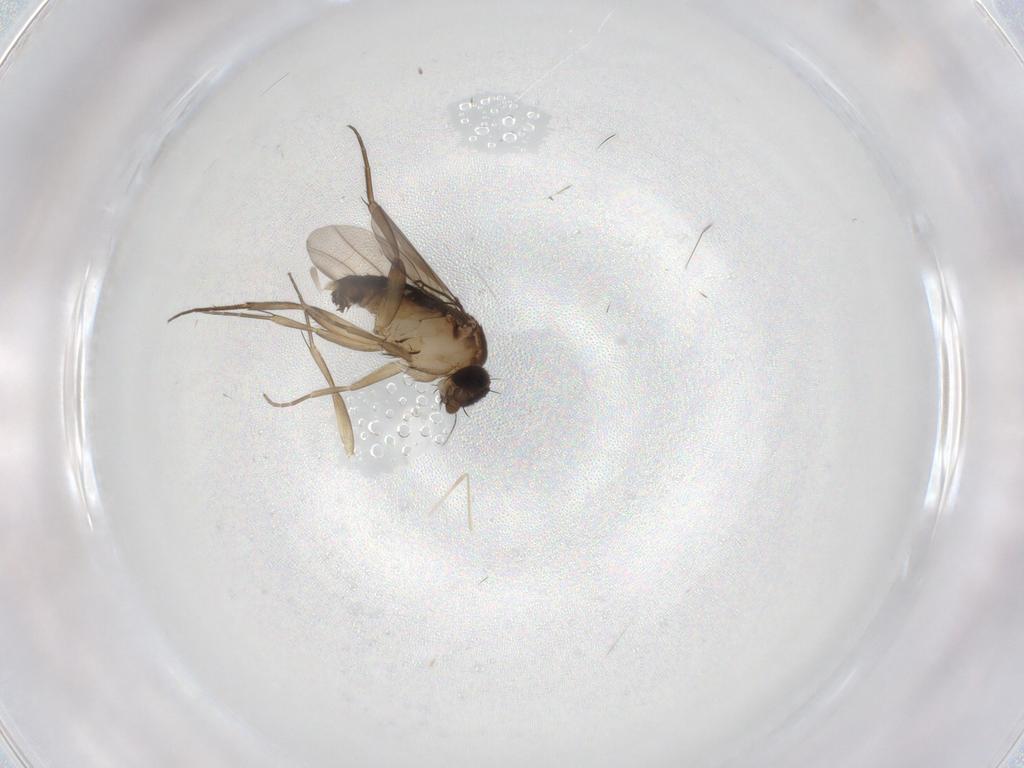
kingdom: Animalia
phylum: Arthropoda
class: Insecta
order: Diptera
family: Phoridae
